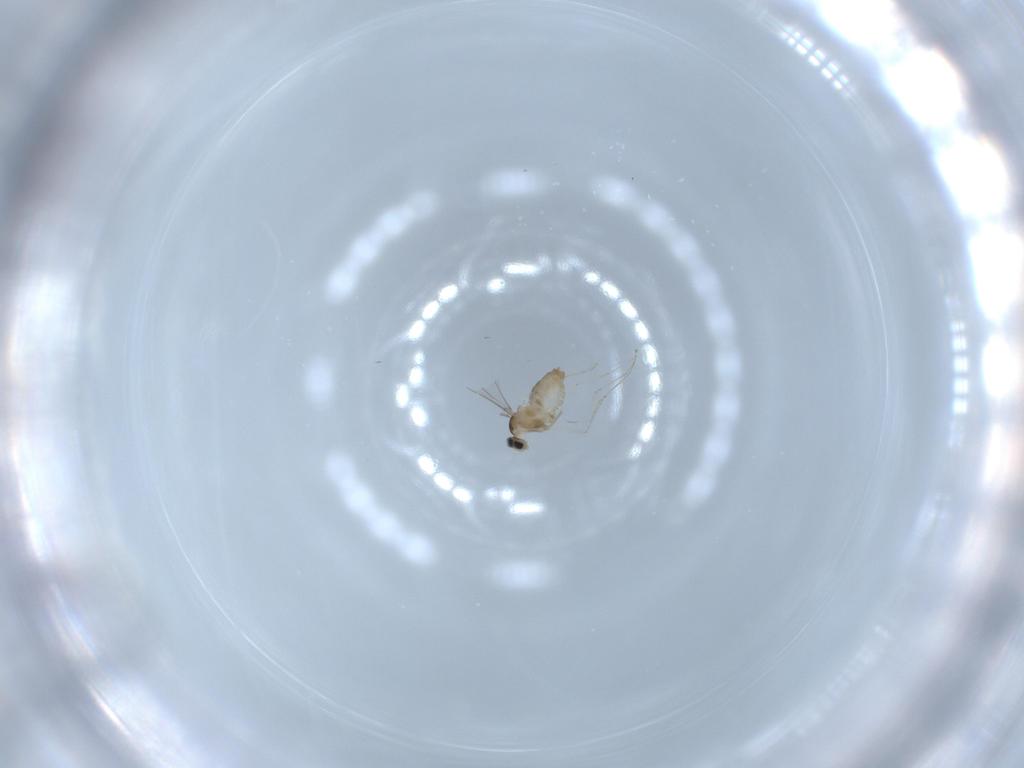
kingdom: Animalia
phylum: Arthropoda
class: Insecta
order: Diptera
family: Cecidomyiidae
